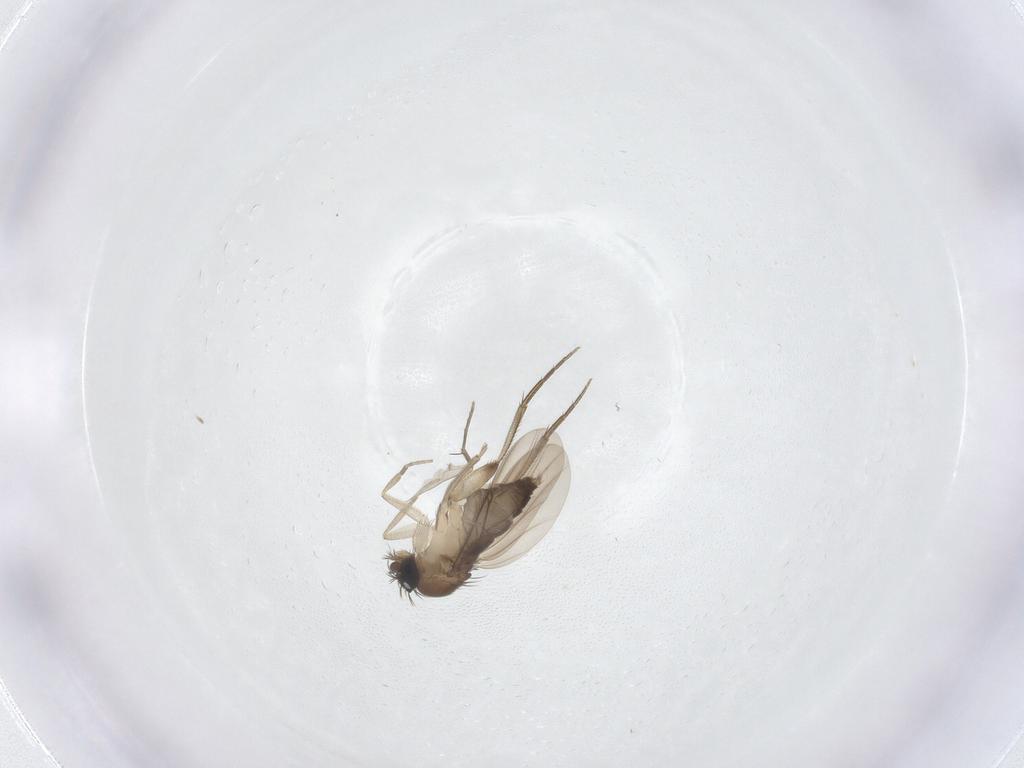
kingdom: Animalia
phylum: Arthropoda
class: Insecta
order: Diptera
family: Phoridae
